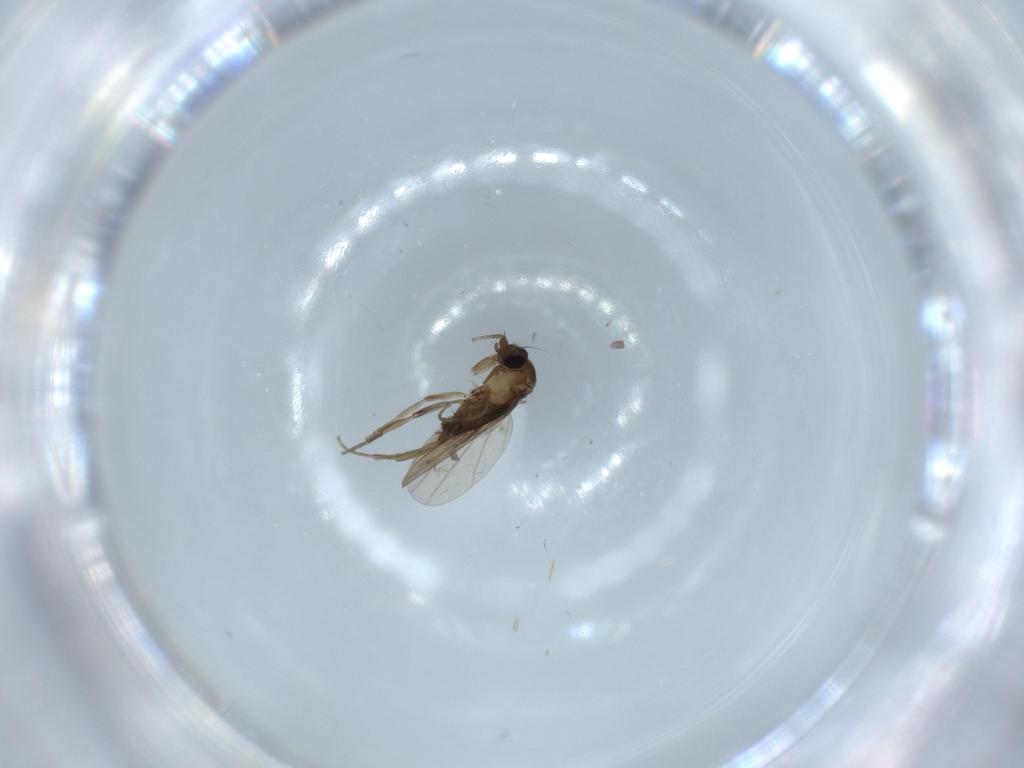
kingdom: Animalia
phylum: Arthropoda
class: Insecta
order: Diptera
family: Phoridae
